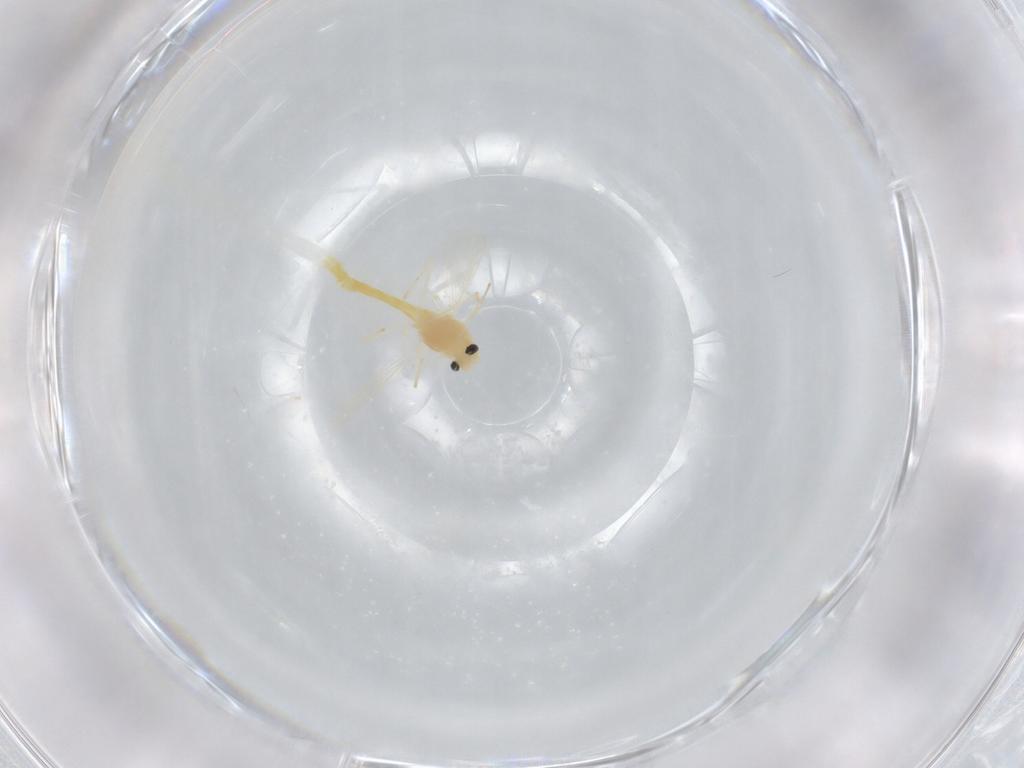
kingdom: Animalia
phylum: Arthropoda
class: Insecta
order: Diptera
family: Chironomidae
